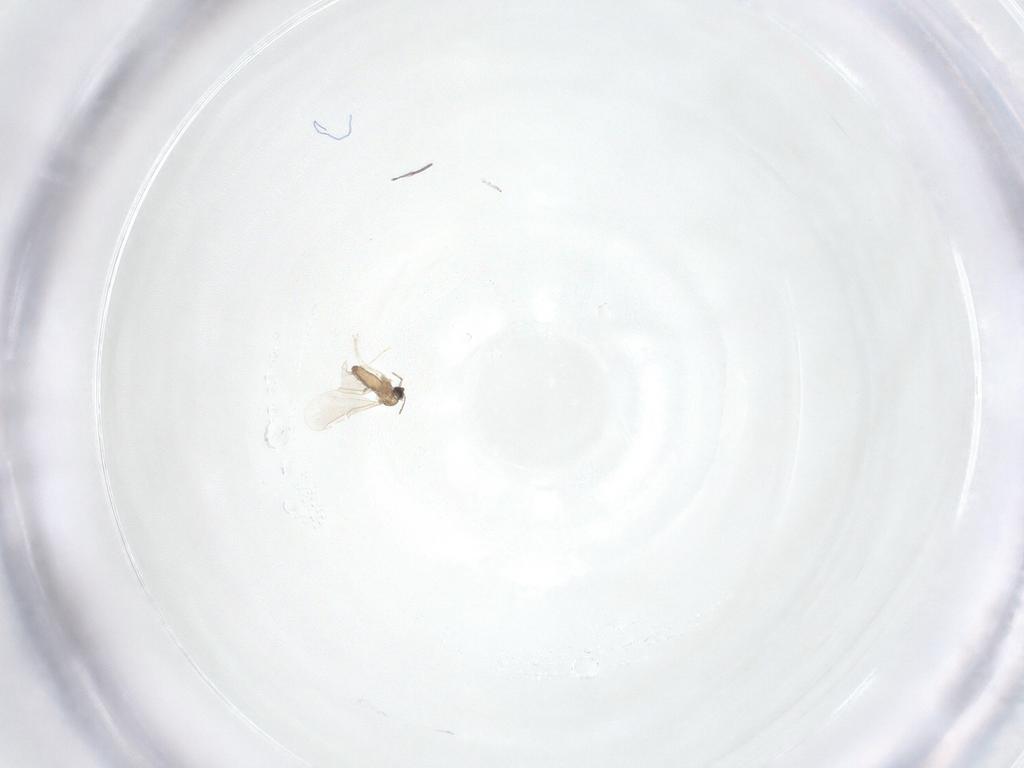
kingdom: Animalia
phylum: Arthropoda
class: Insecta
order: Diptera
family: Cecidomyiidae
